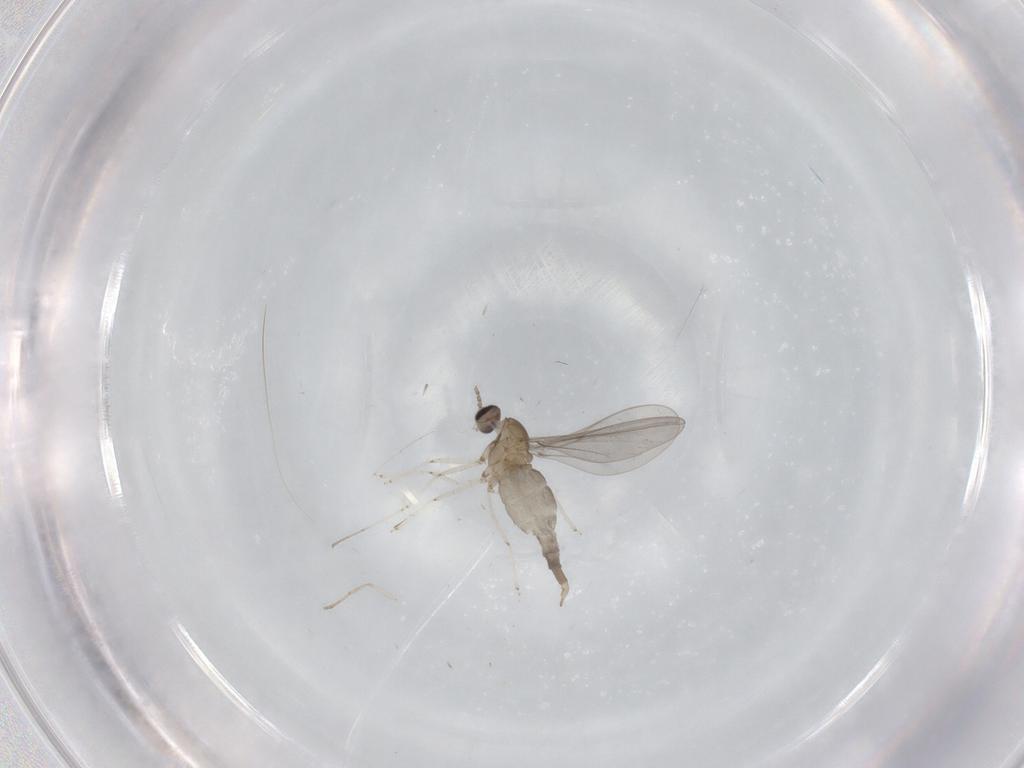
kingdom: Animalia
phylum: Arthropoda
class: Insecta
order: Diptera
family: Cecidomyiidae
